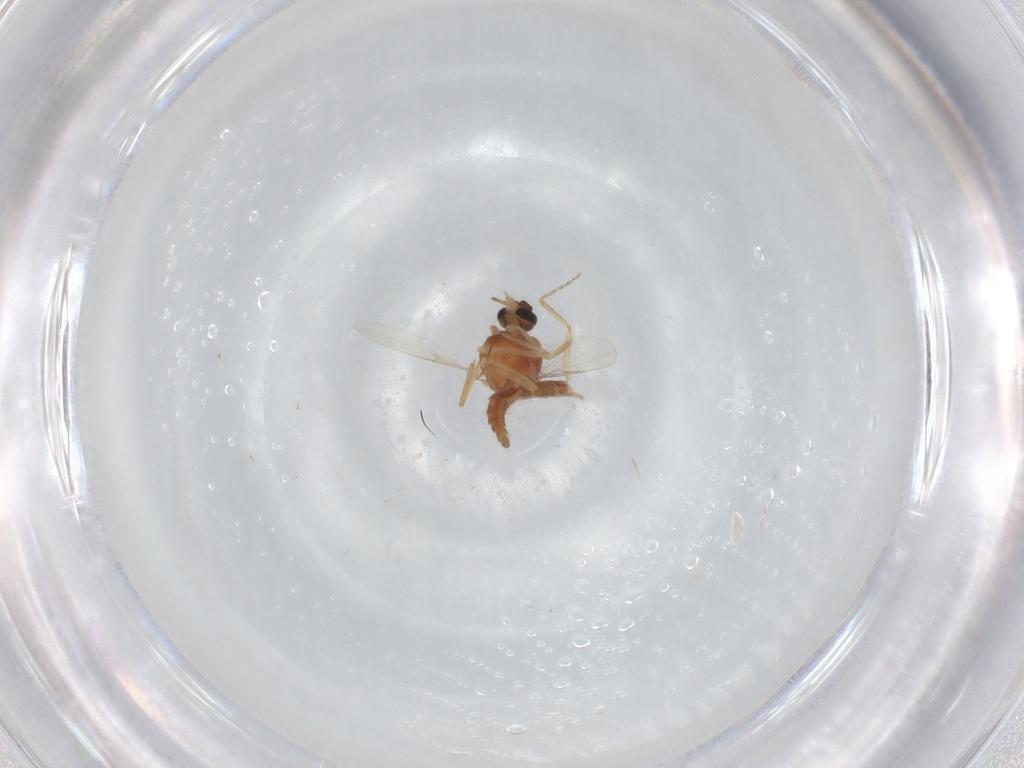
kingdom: Animalia
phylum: Arthropoda
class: Insecta
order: Diptera
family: Ceratopogonidae
